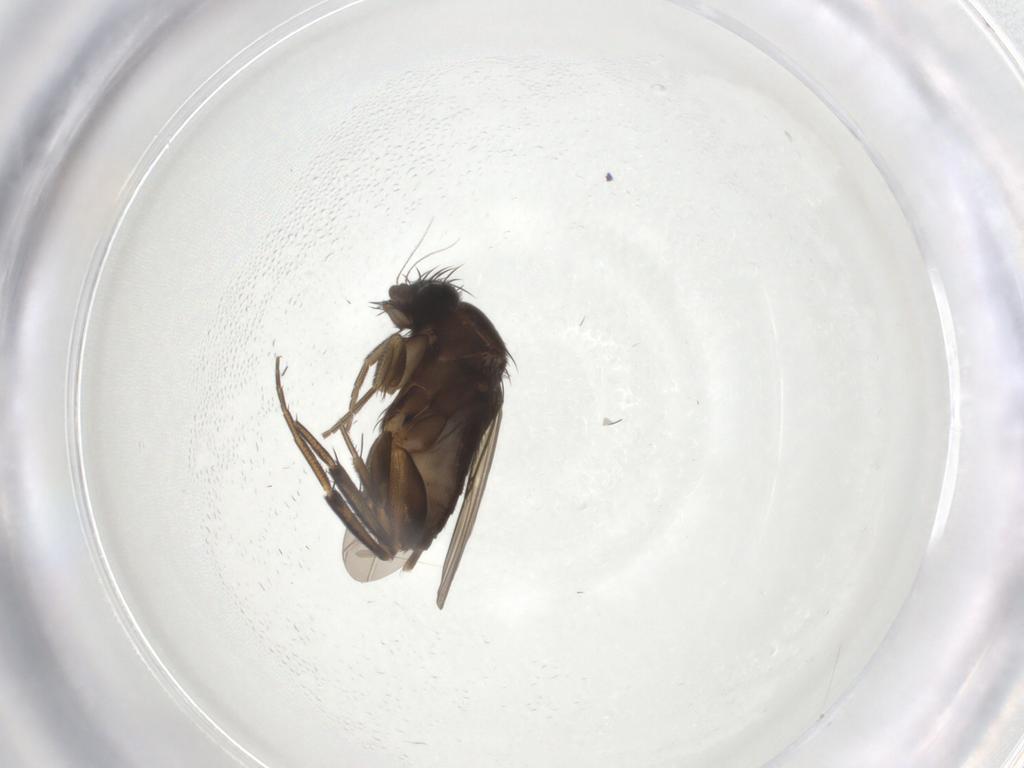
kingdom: Animalia
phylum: Arthropoda
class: Insecta
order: Diptera
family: Phoridae
